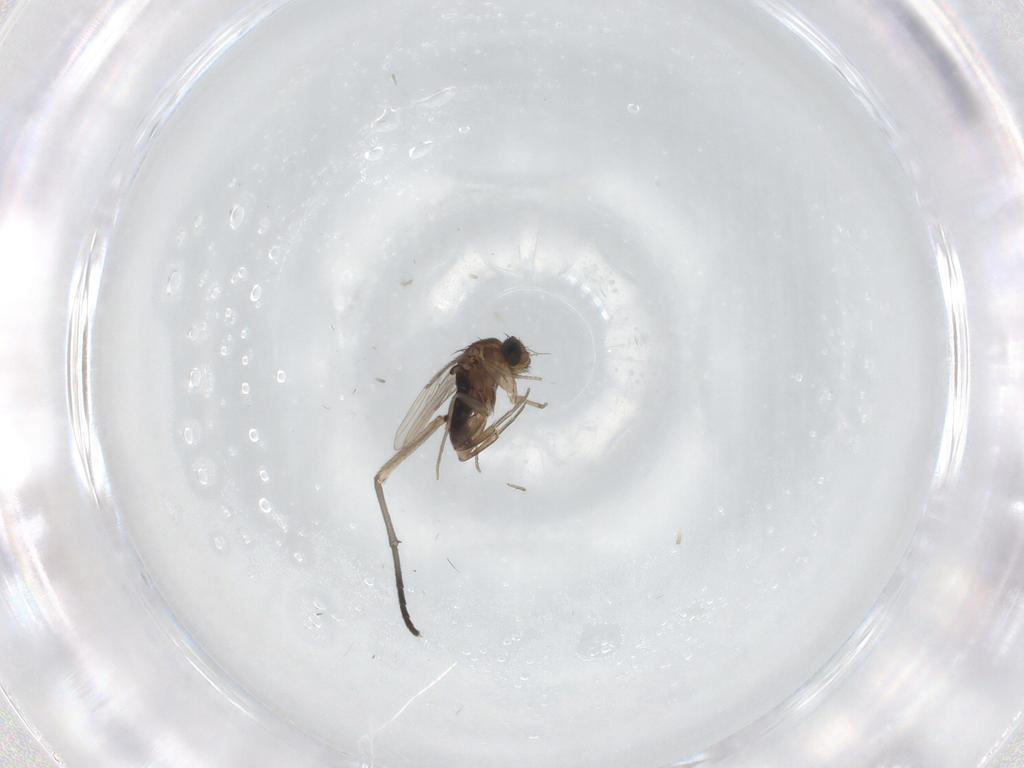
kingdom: Animalia
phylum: Arthropoda
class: Insecta
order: Diptera
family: Phoridae
